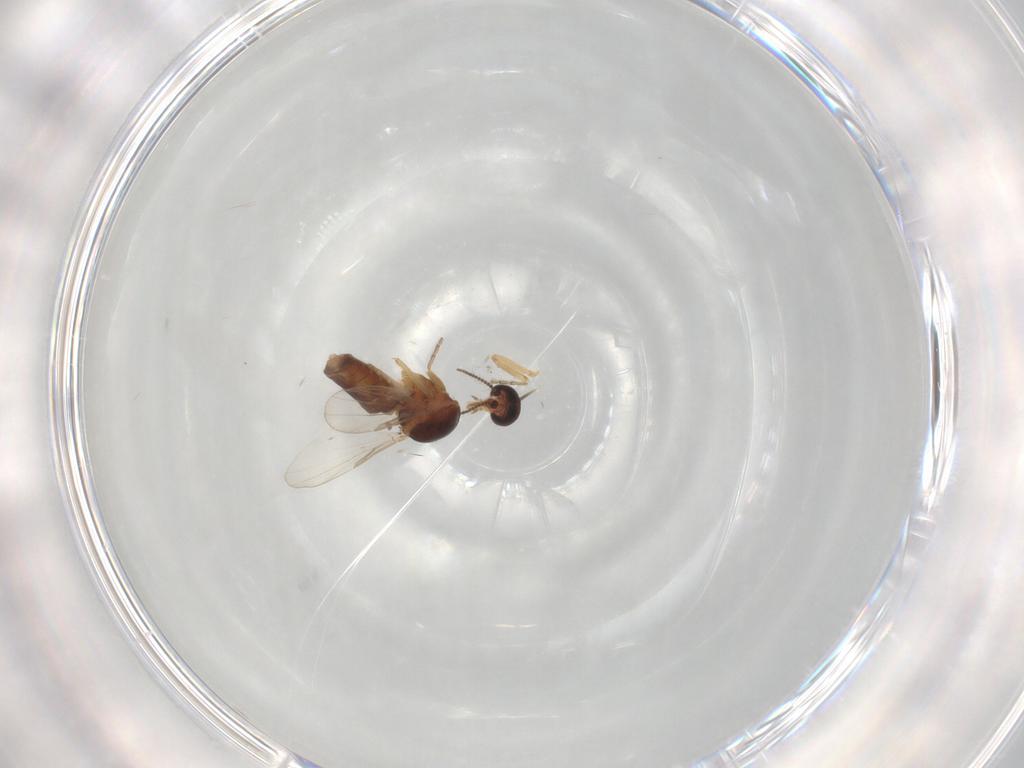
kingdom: Animalia
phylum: Arthropoda
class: Insecta
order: Diptera
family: Ceratopogonidae
